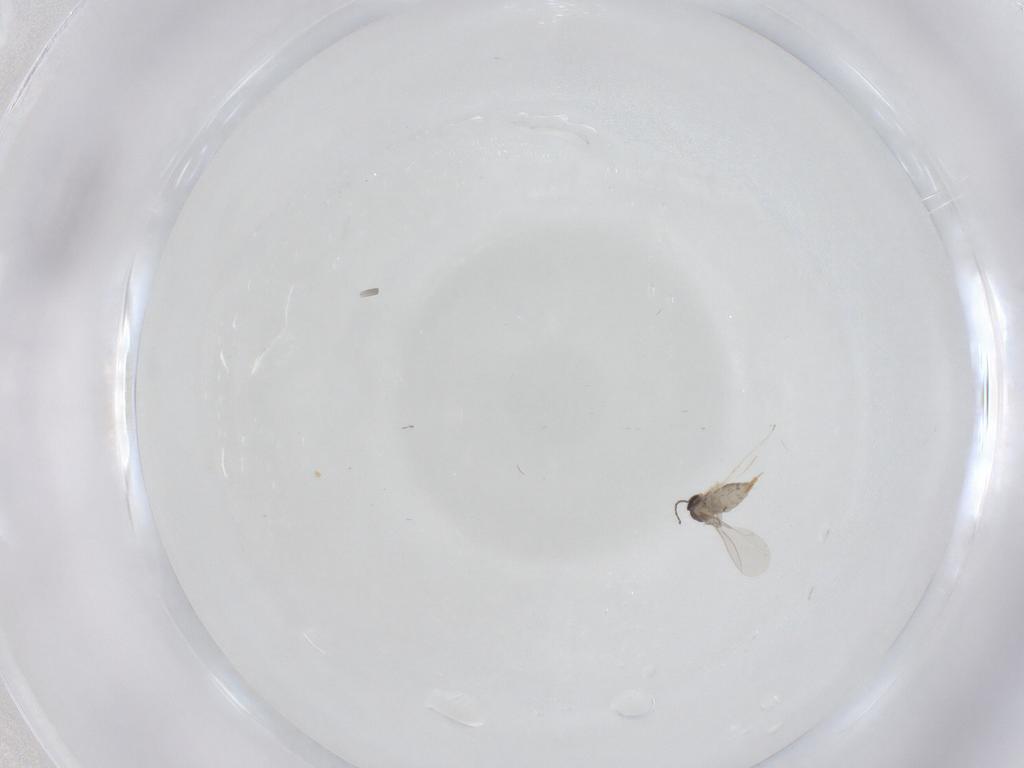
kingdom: Animalia
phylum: Arthropoda
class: Insecta
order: Diptera
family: Cecidomyiidae
